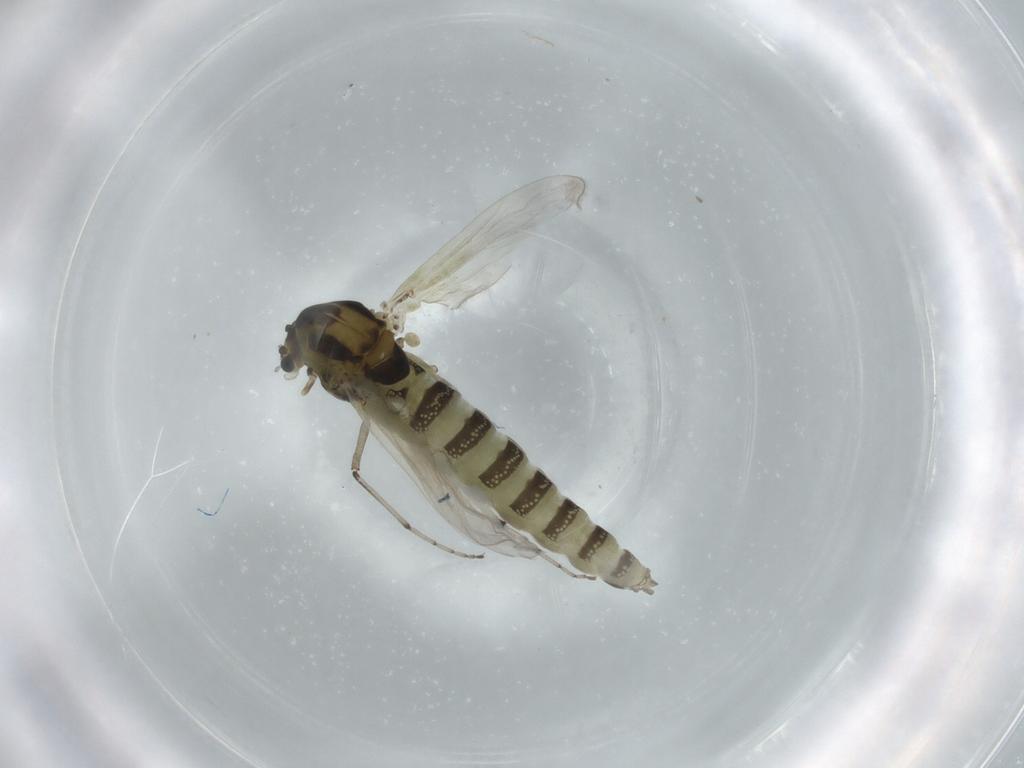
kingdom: Animalia
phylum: Arthropoda
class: Insecta
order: Diptera
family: Chironomidae
